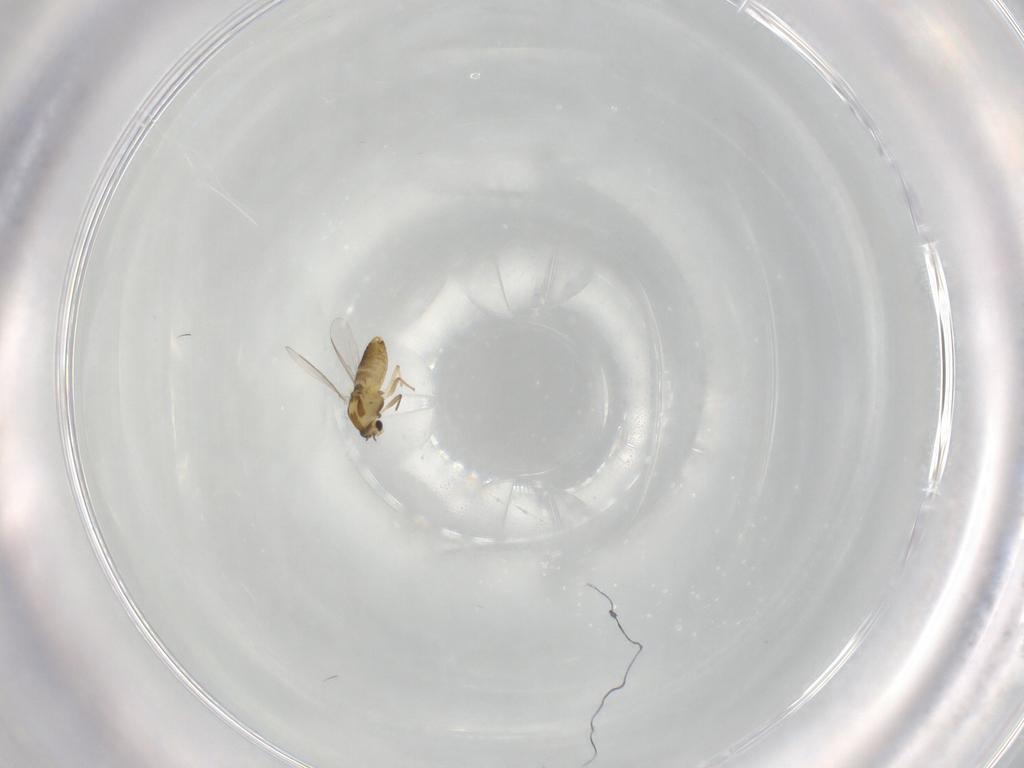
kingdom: Animalia
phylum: Arthropoda
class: Insecta
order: Diptera
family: Chironomidae
